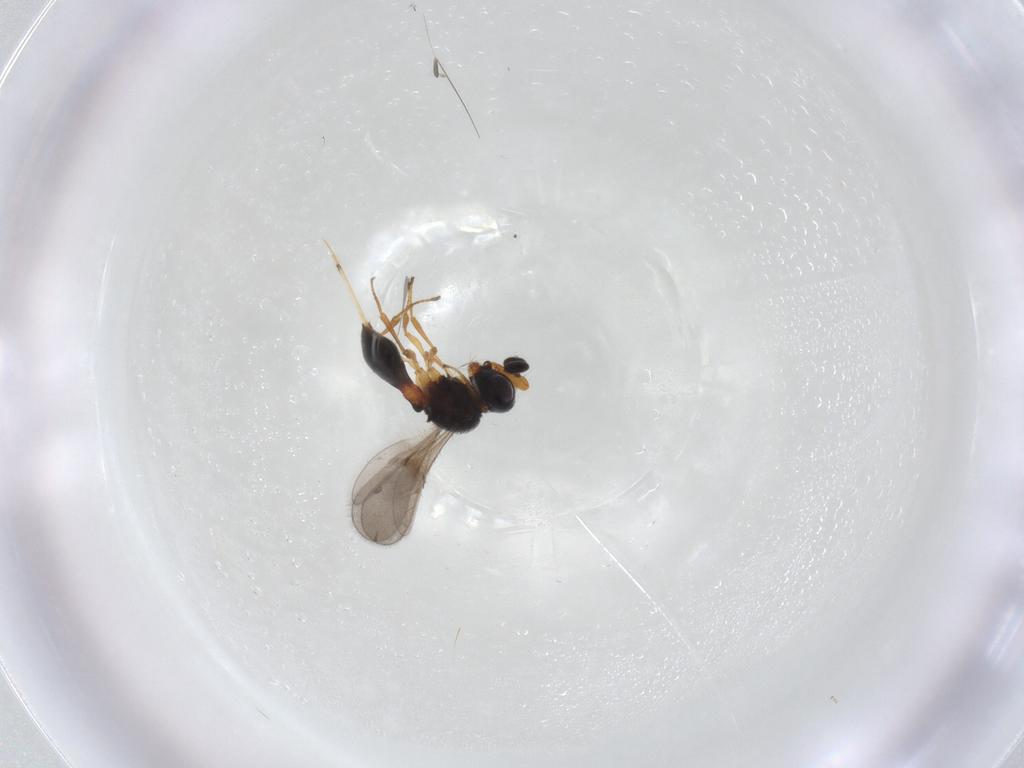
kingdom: Animalia
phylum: Arthropoda
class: Insecta
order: Hymenoptera
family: Scelionidae
